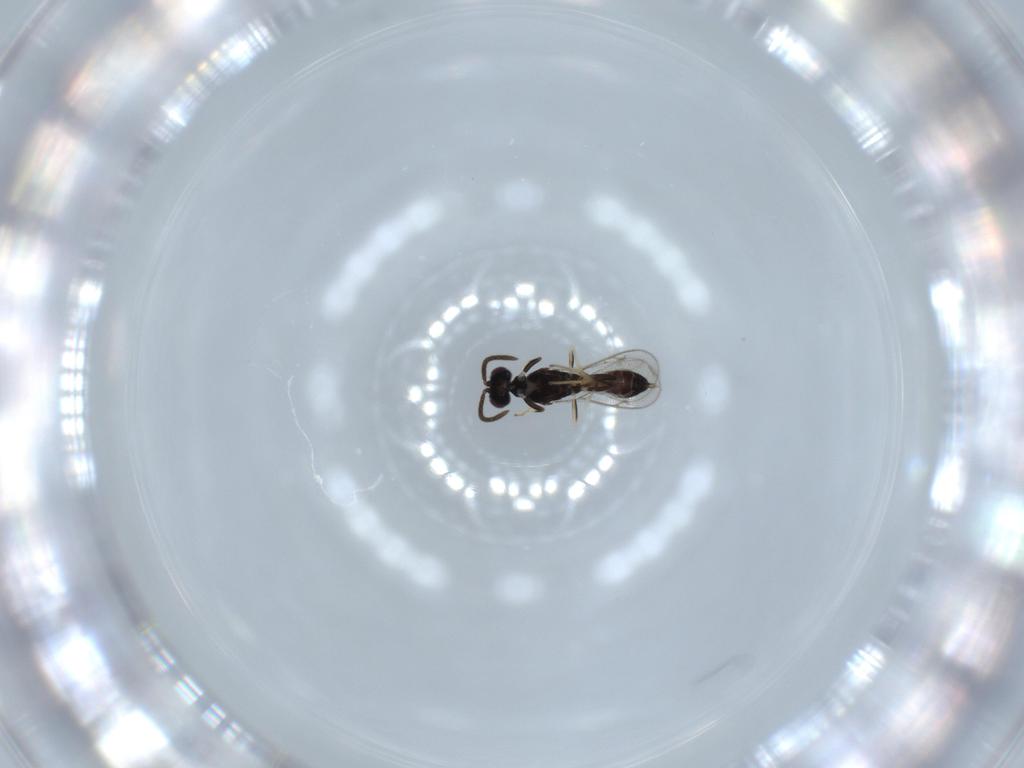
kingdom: Animalia
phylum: Arthropoda
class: Insecta
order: Hymenoptera
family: Eupelmidae
